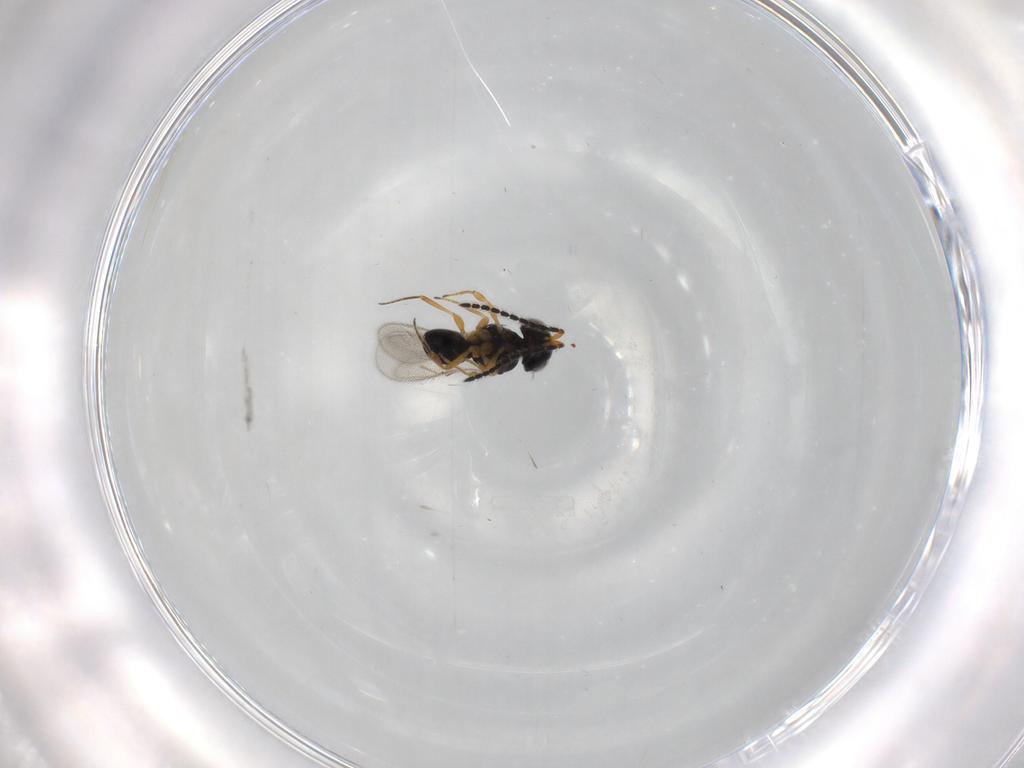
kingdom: Animalia
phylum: Arthropoda
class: Insecta
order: Hymenoptera
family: Scelionidae
